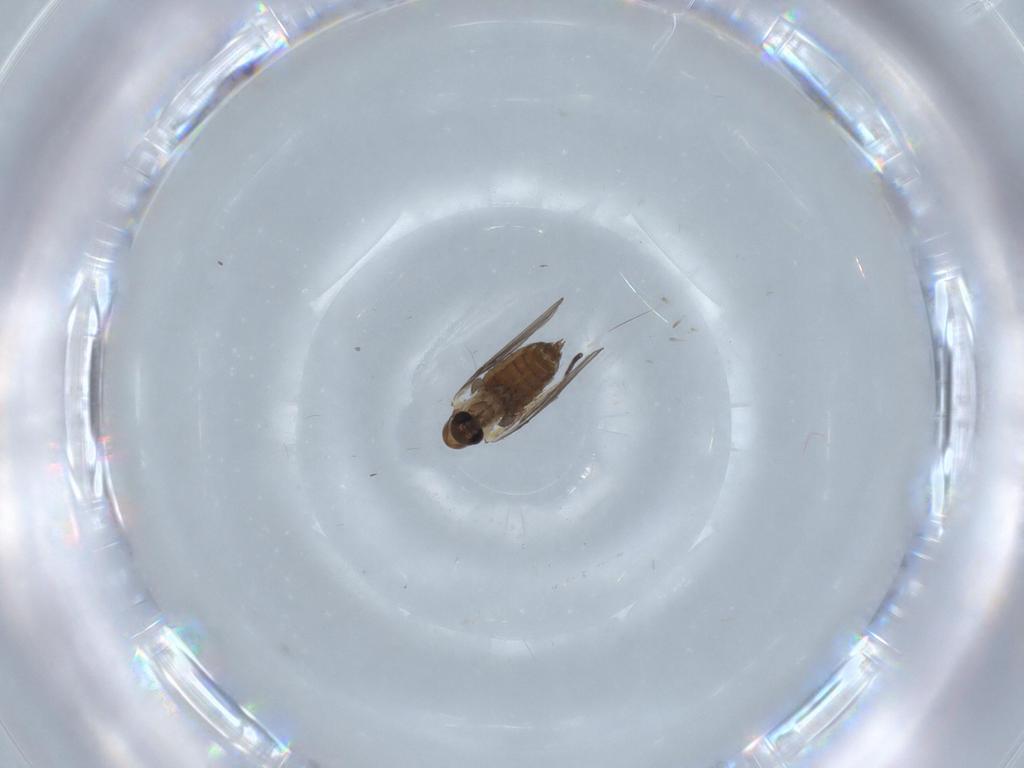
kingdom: Animalia
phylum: Arthropoda
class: Insecta
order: Diptera
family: Psychodidae
